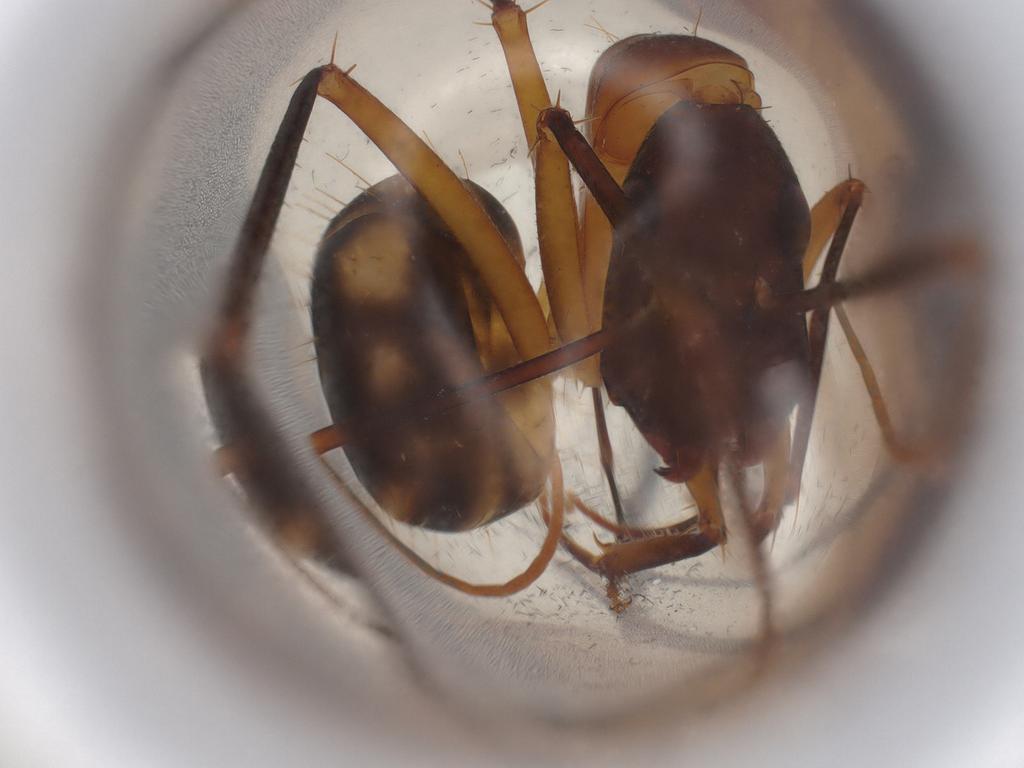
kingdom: Animalia
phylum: Arthropoda
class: Insecta
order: Hymenoptera
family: Formicidae
